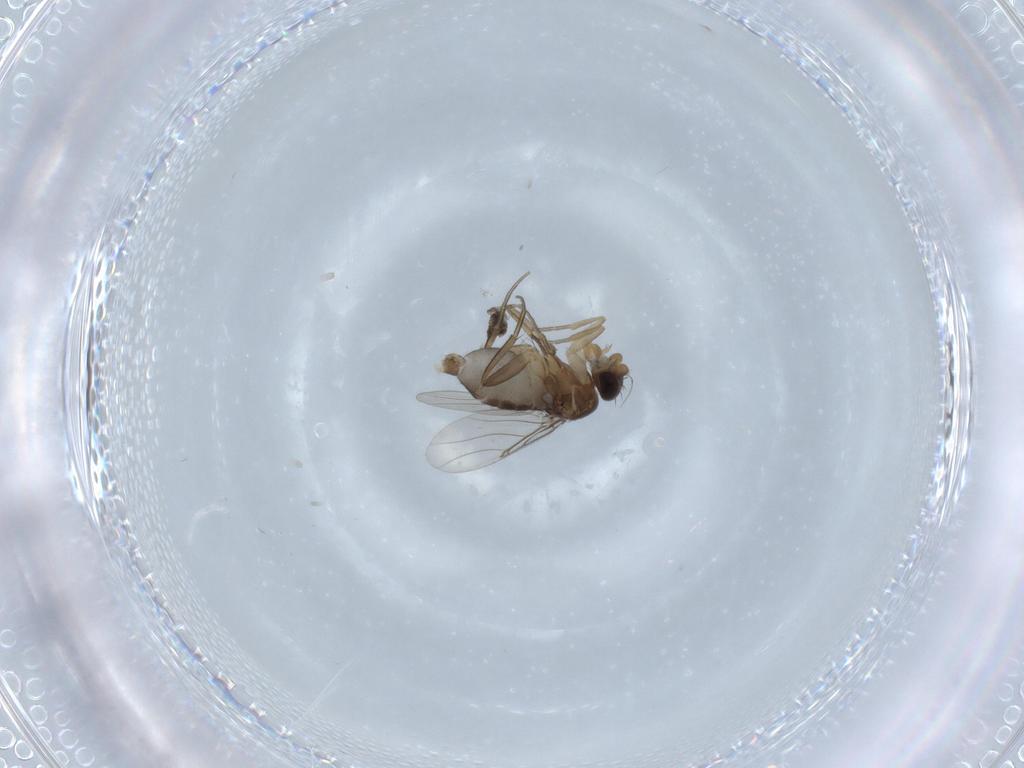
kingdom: Animalia
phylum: Arthropoda
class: Insecta
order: Diptera
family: Phoridae
